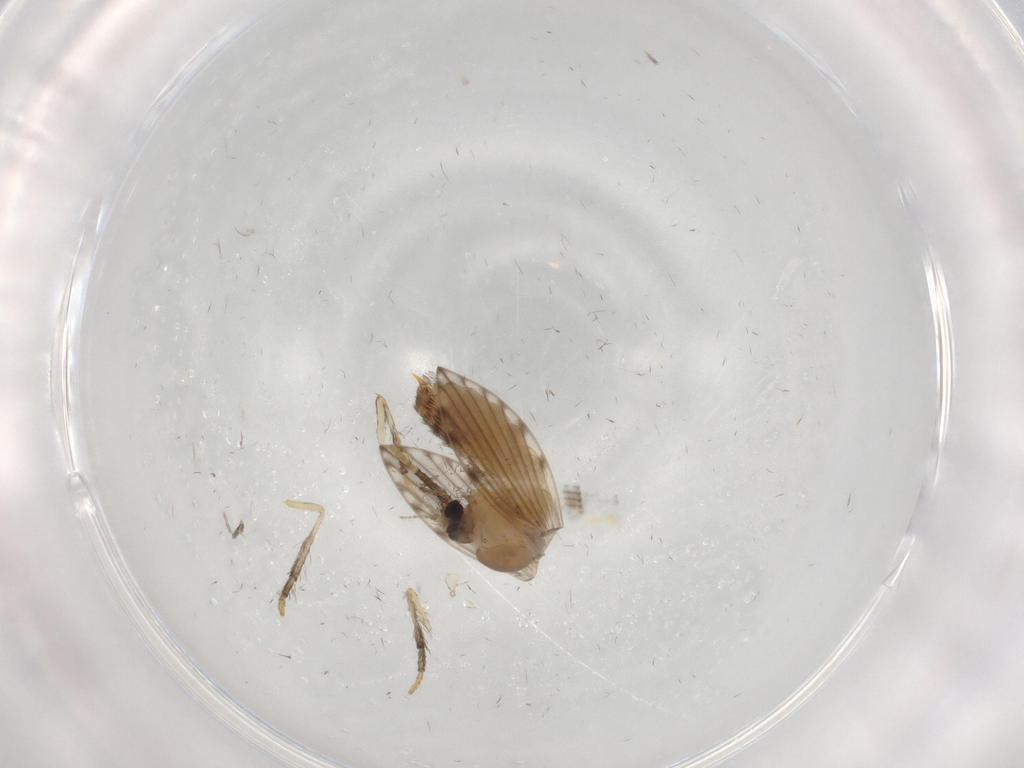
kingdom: Animalia
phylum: Arthropoda
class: Insecta
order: Diptera
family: Psychodidae
